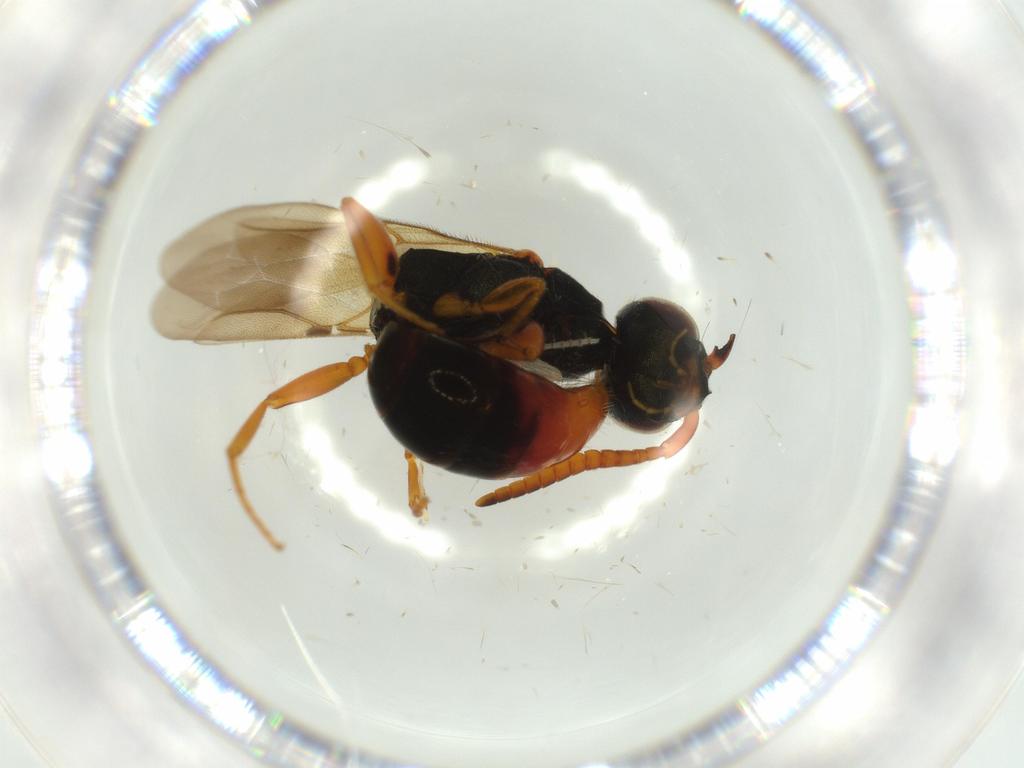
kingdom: Animalia
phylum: Arthropoda
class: Insecta
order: Hymenoptera
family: Bethylidae
